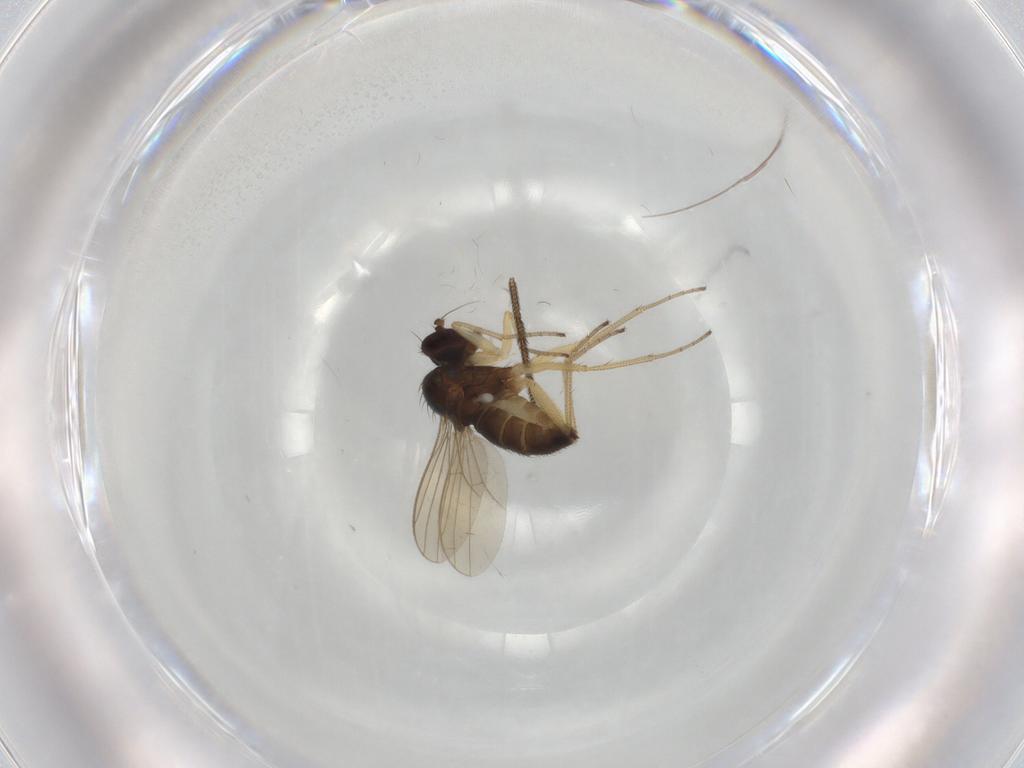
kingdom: Animalia
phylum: Arthropoda
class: Insecta
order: Diptera
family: Dolichopodidae
